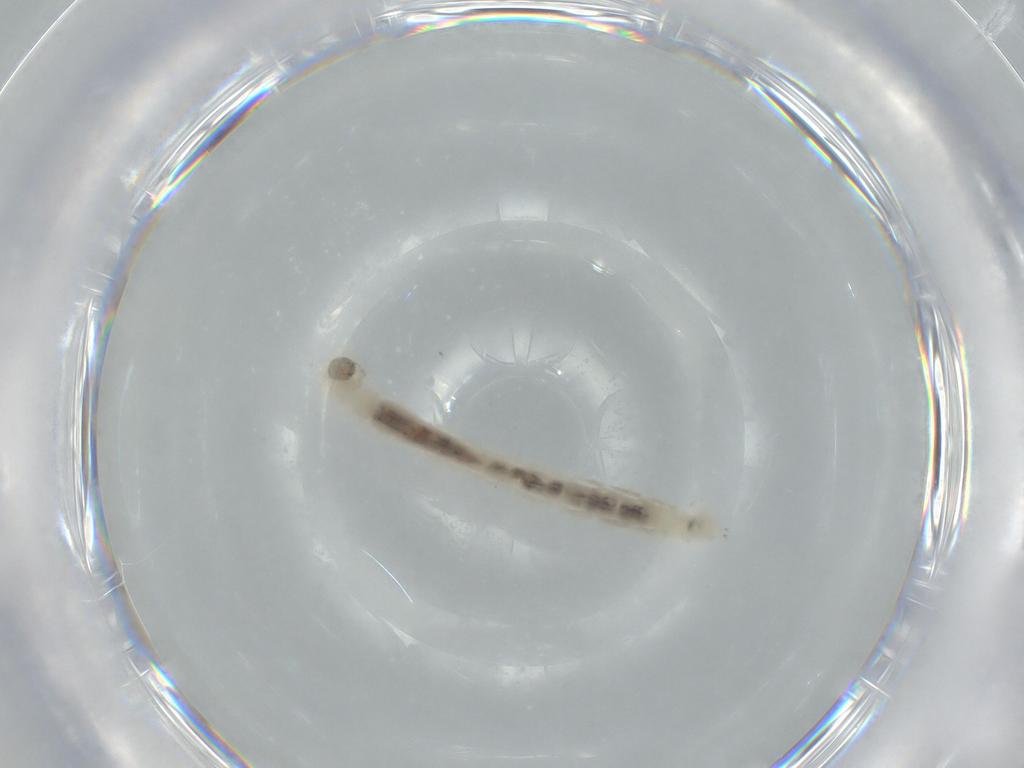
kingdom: Animalia
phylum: Arthropoda
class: Insecta
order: Diptera
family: Chironomidae
